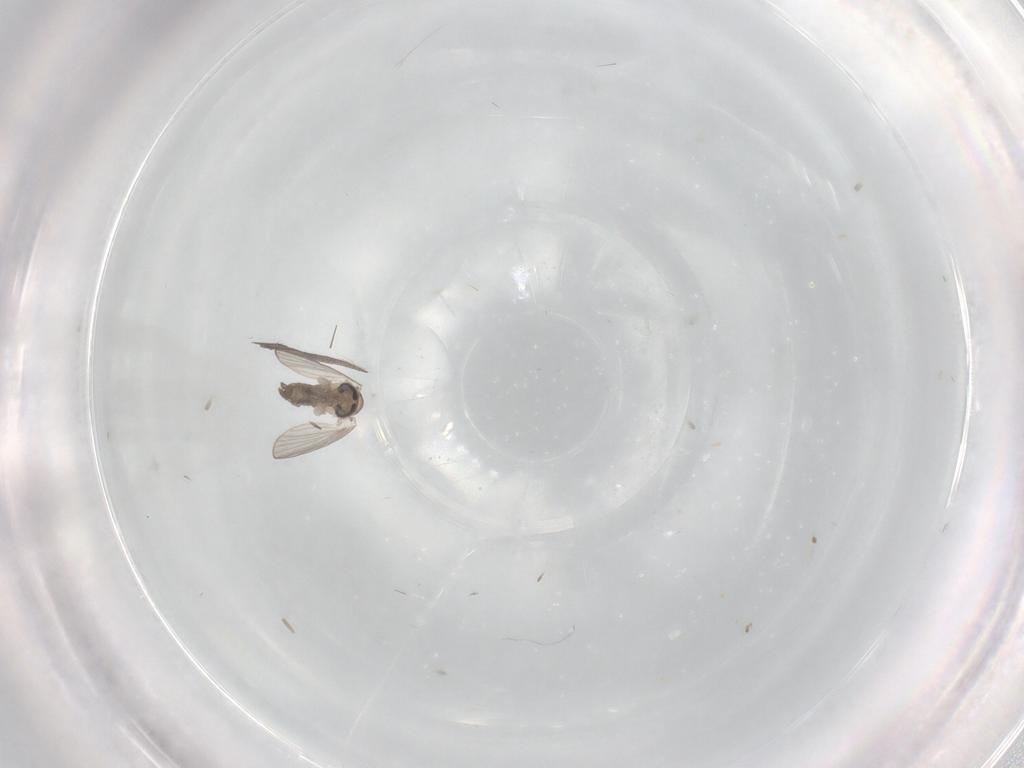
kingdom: Animalia
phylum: Arthropoda
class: Insecta
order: Diptera
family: Psychodidae
